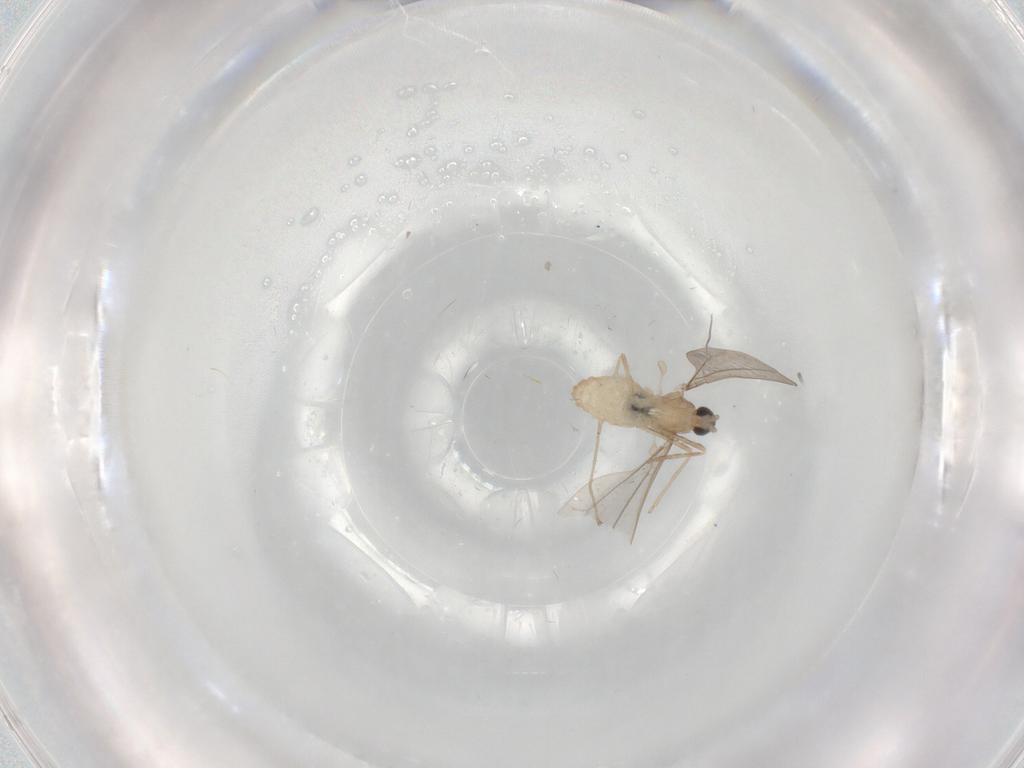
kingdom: Animalia
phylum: Arthropoda
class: Insecta
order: Diptera
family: Cecidomyiidae
